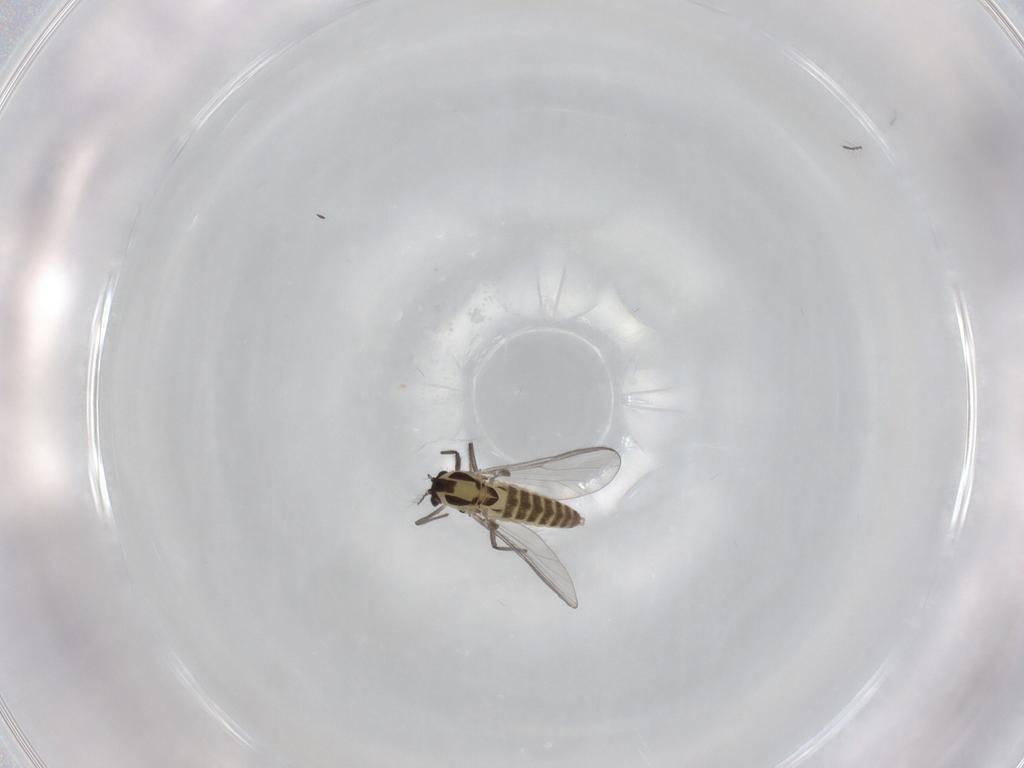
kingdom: Animalia
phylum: Arthropoda
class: Insecta
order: Diptera
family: Chironomidae
